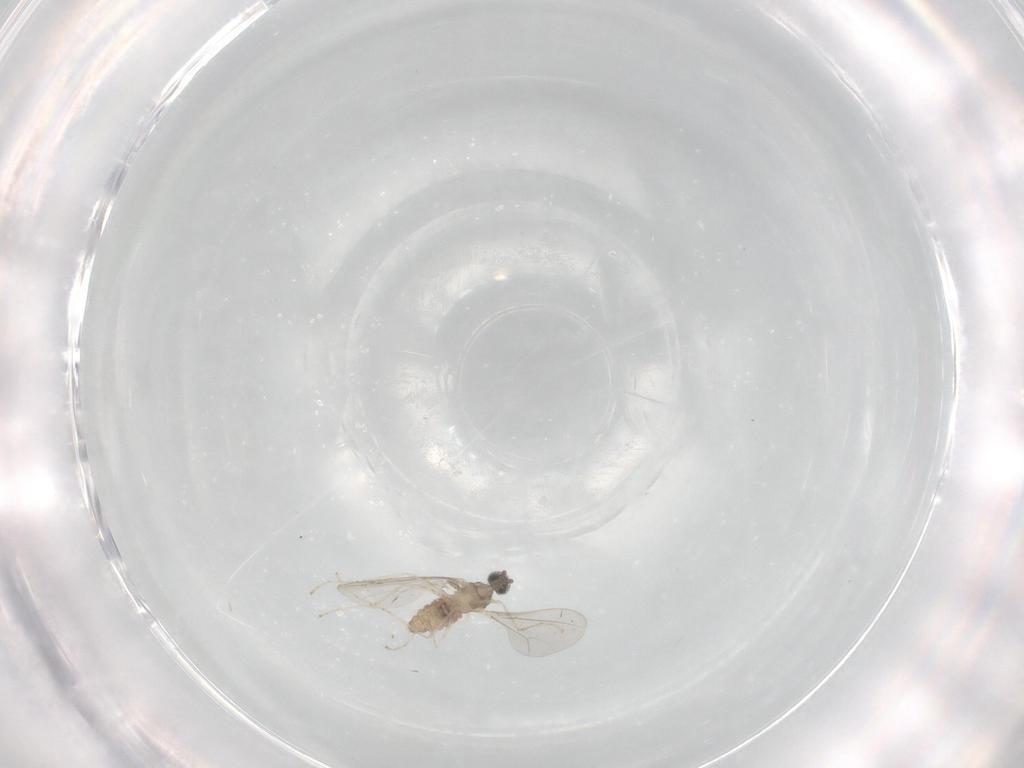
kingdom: Animalia
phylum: Arthropoda
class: Insecta
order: Diptera
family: Cecidomyiidae
